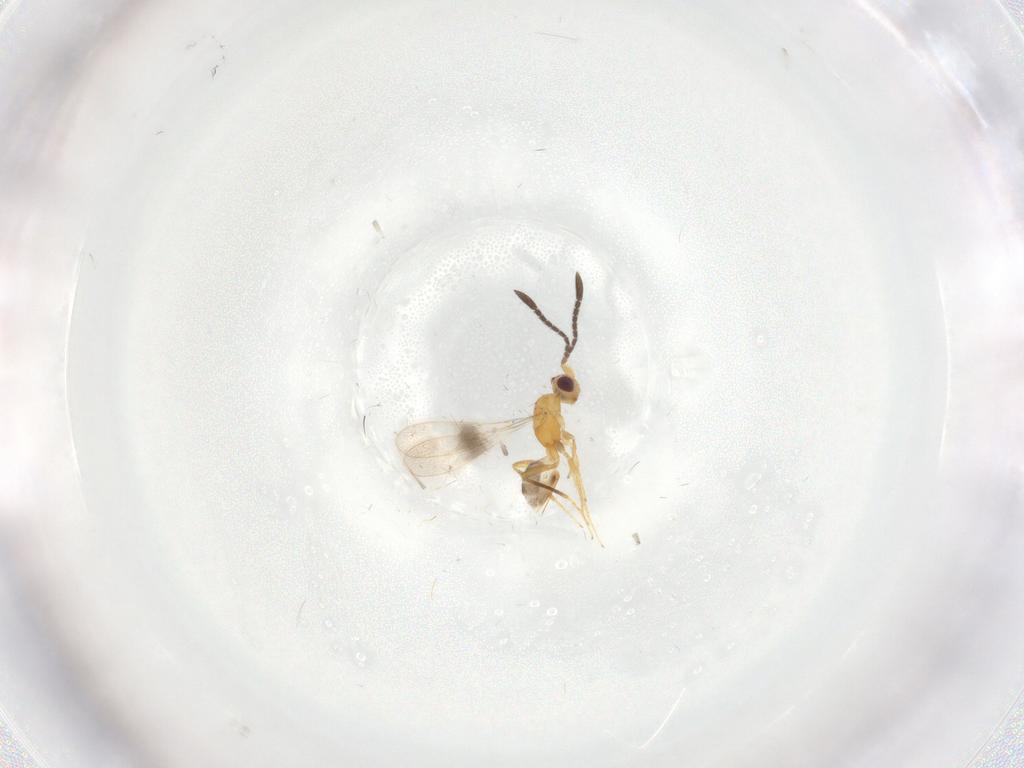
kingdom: Animalia
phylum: Arthropoda
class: Insecta
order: Hymenoptera
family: Mymaridae
